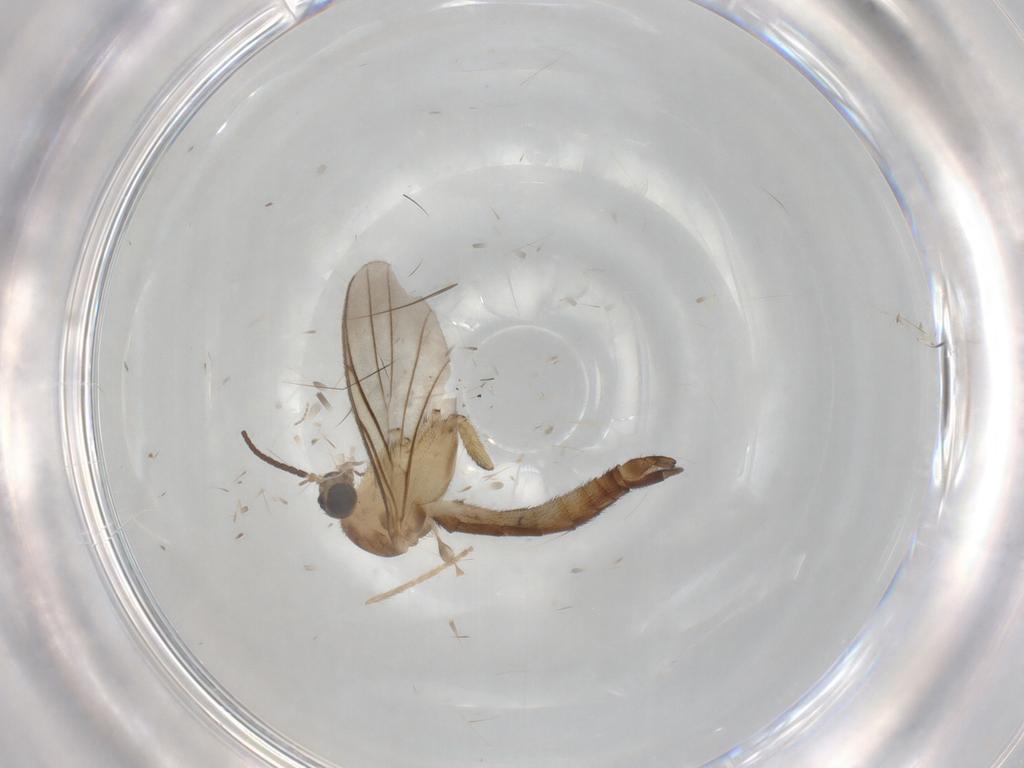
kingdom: Animalia
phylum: Arthropoda
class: Insecta
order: Diptera
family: Keroplatidae
